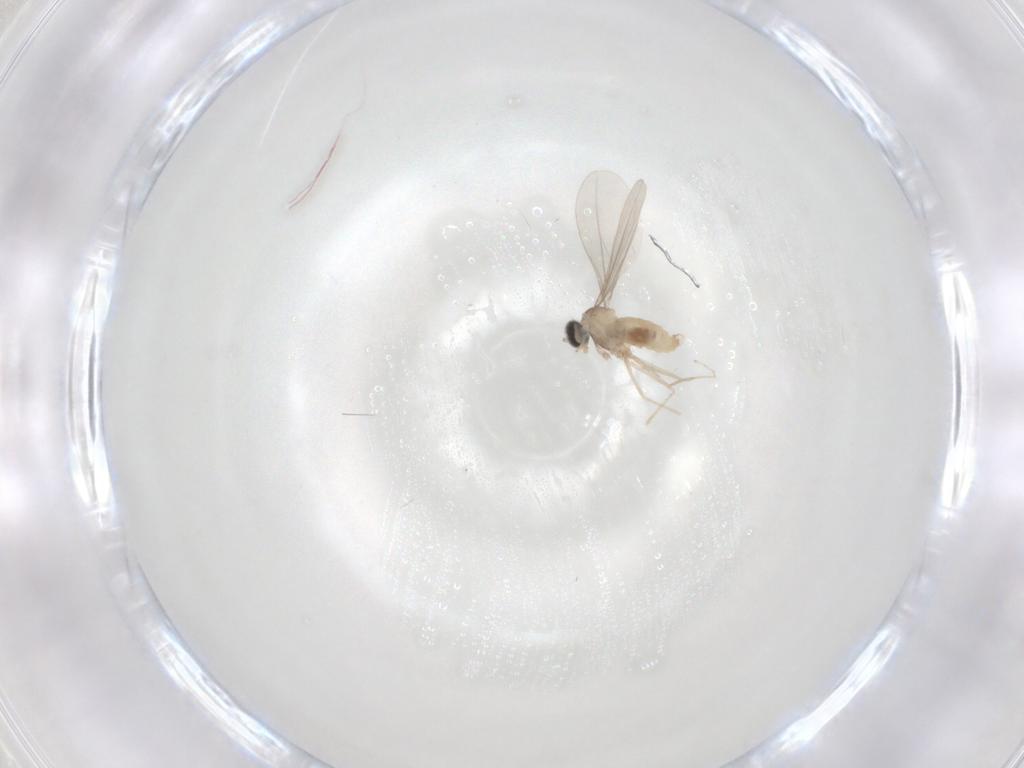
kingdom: Animalia
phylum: Arthropoda
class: Insecta
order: Diptera
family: Cecidomyiidae
